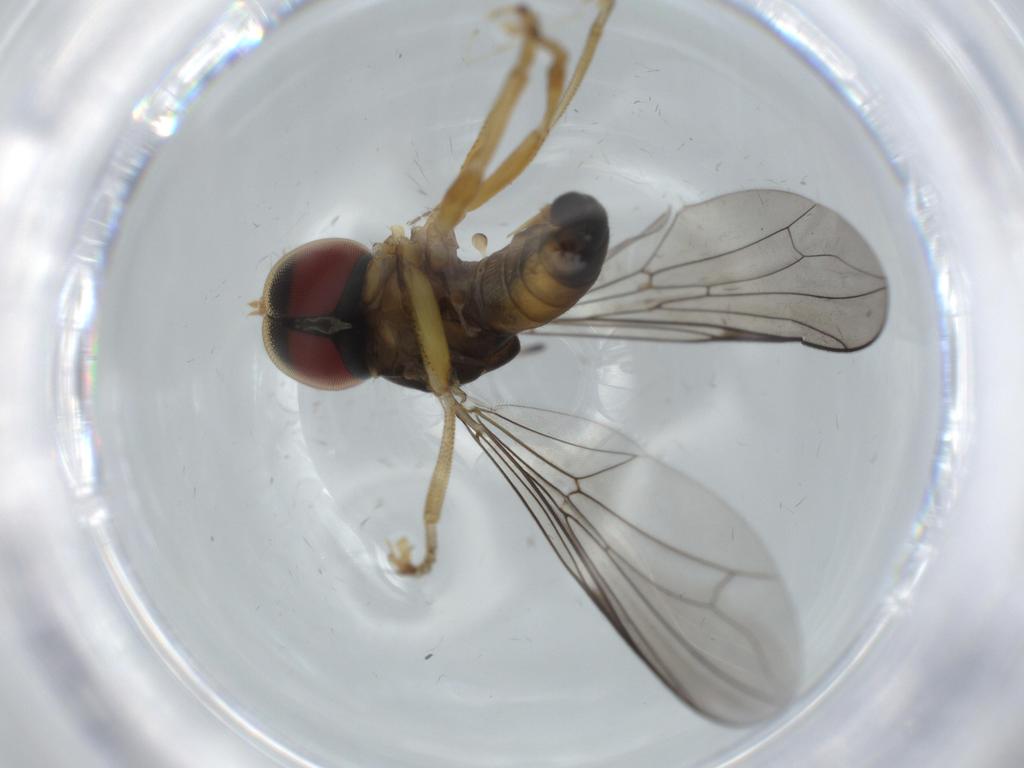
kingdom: Animalia
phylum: Arthropoda
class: Insecta
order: Diptera
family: Pipunculidae
